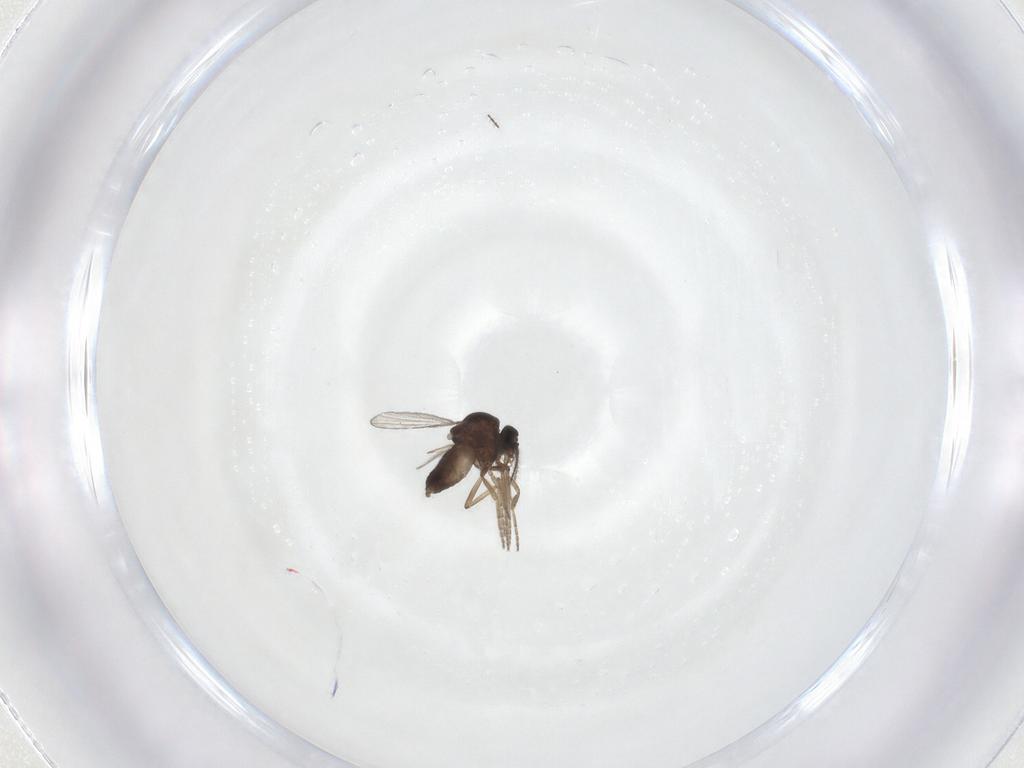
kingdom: Animalia
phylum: Arthropoda
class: Insecta
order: Diptera
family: Ceratopogonidae
